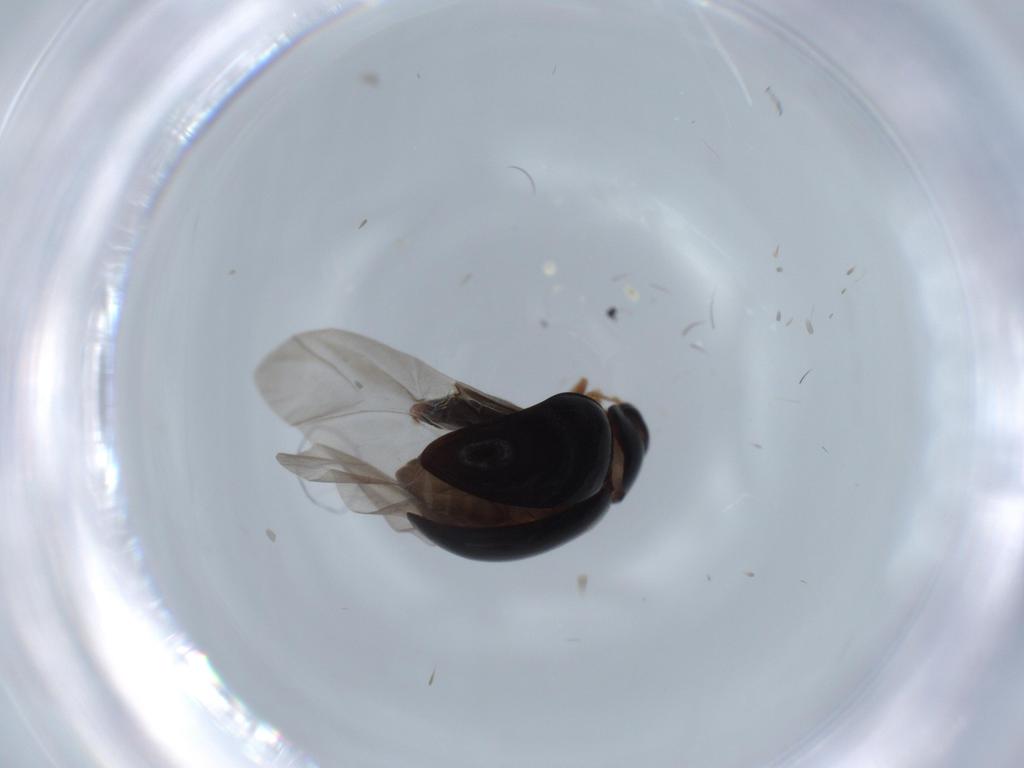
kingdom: Animalia
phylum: Arthropoda
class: Insecta
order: Coleoptera
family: Chrysomelidae
